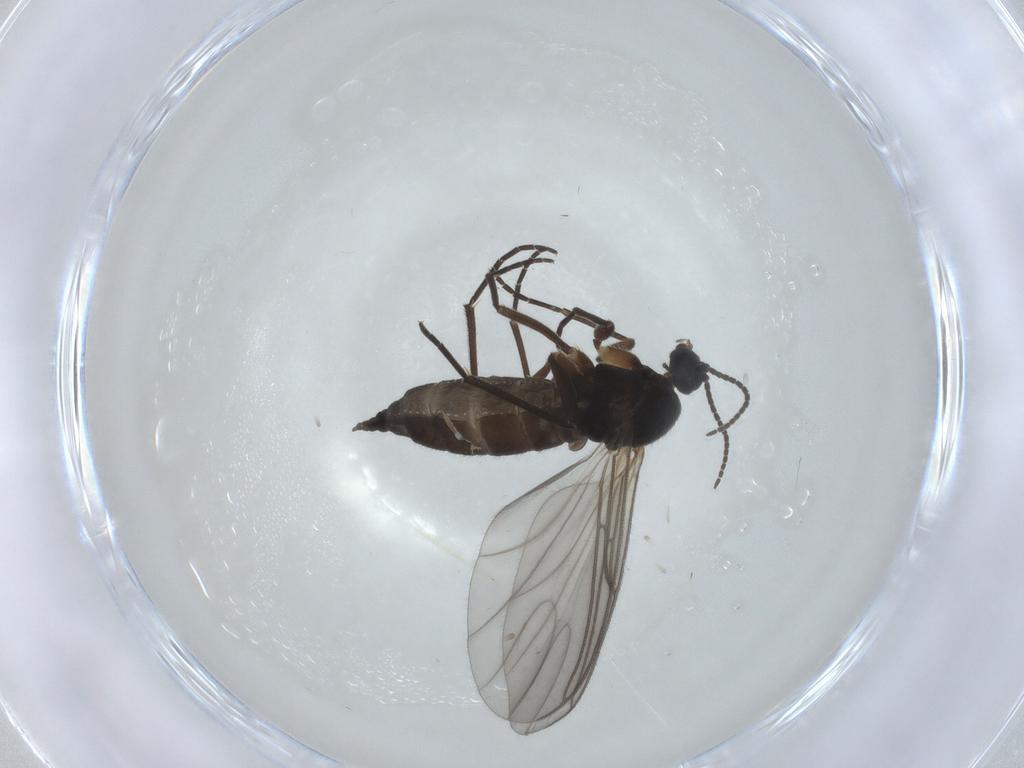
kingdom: Animalia
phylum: Arthropoda
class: Insecta
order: Diptera
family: Sciaridae
